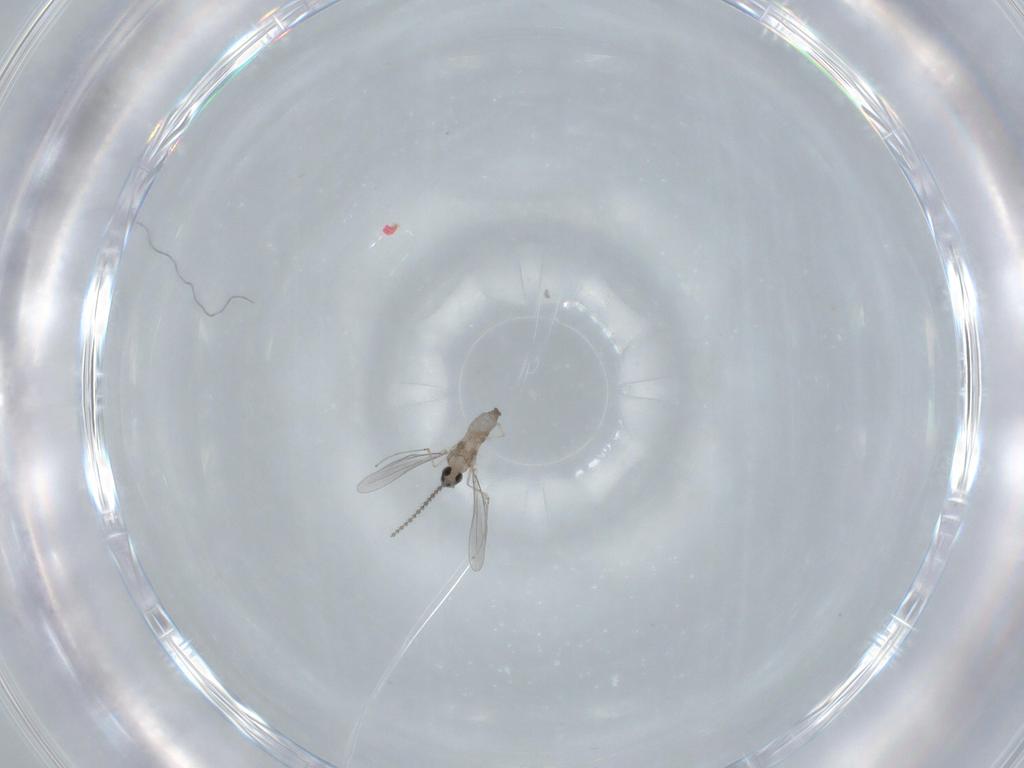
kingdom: Animalia
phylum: Arthropoda
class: Insecta
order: Diptera
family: Cecidomyiidae
